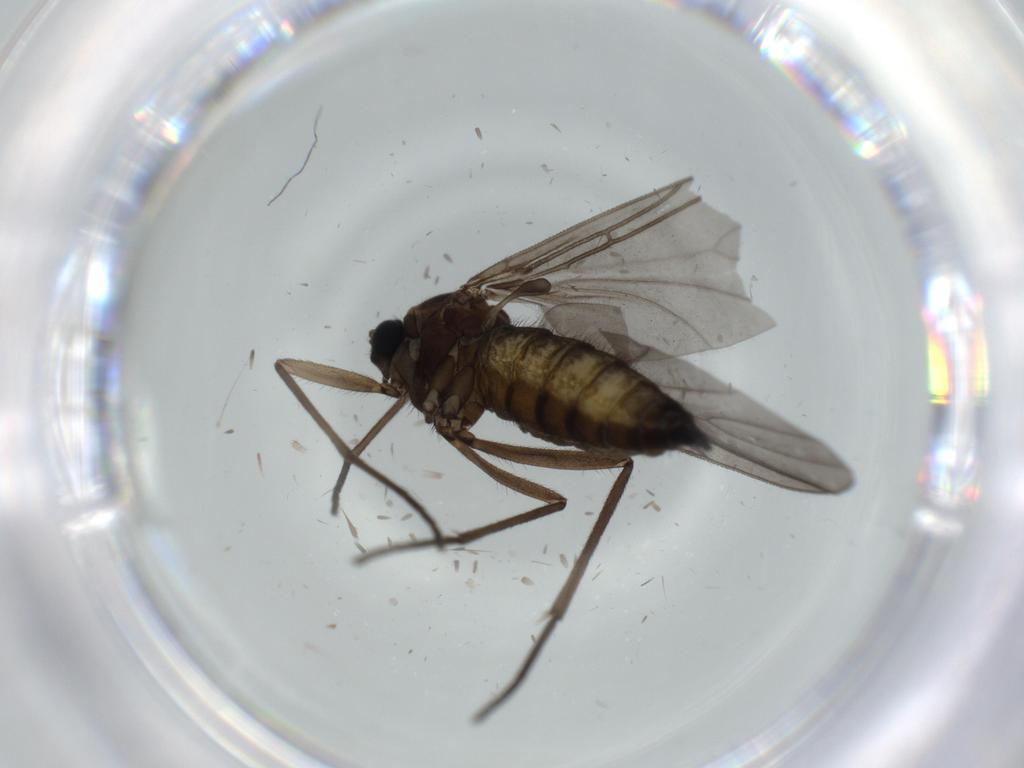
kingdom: Animalia
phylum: Arthropoda
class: Insecta
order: Diptera
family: Sciaridae
